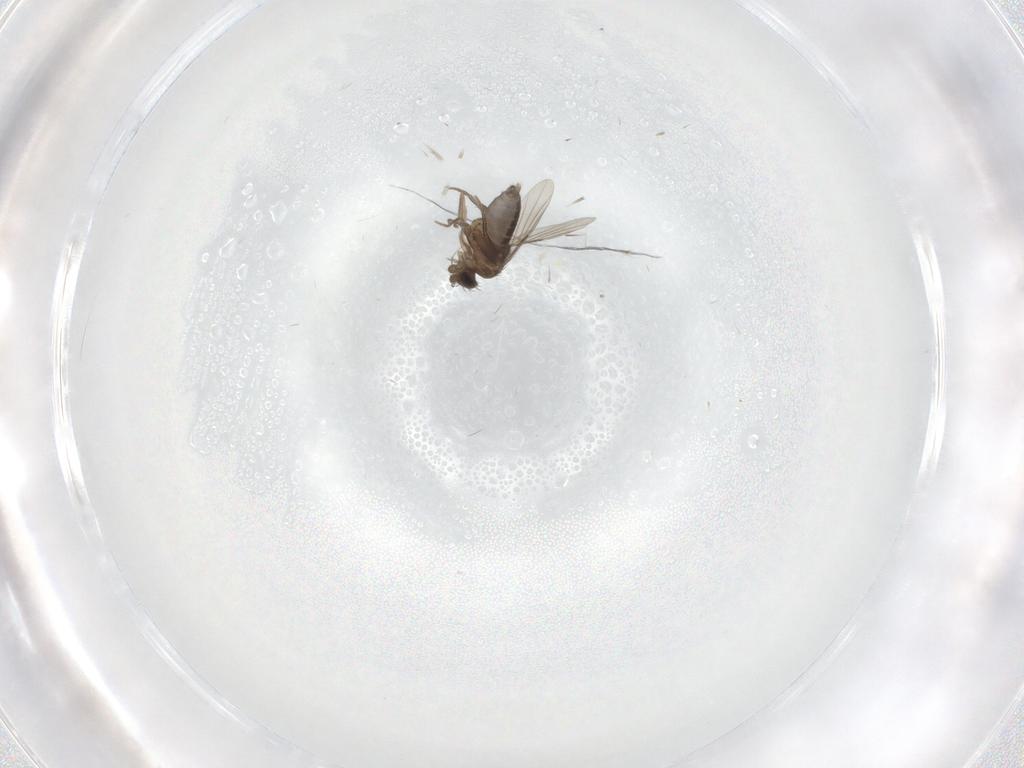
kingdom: Animalia
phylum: Arthropoda
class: Insecta
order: Diptera
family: Phoridae
